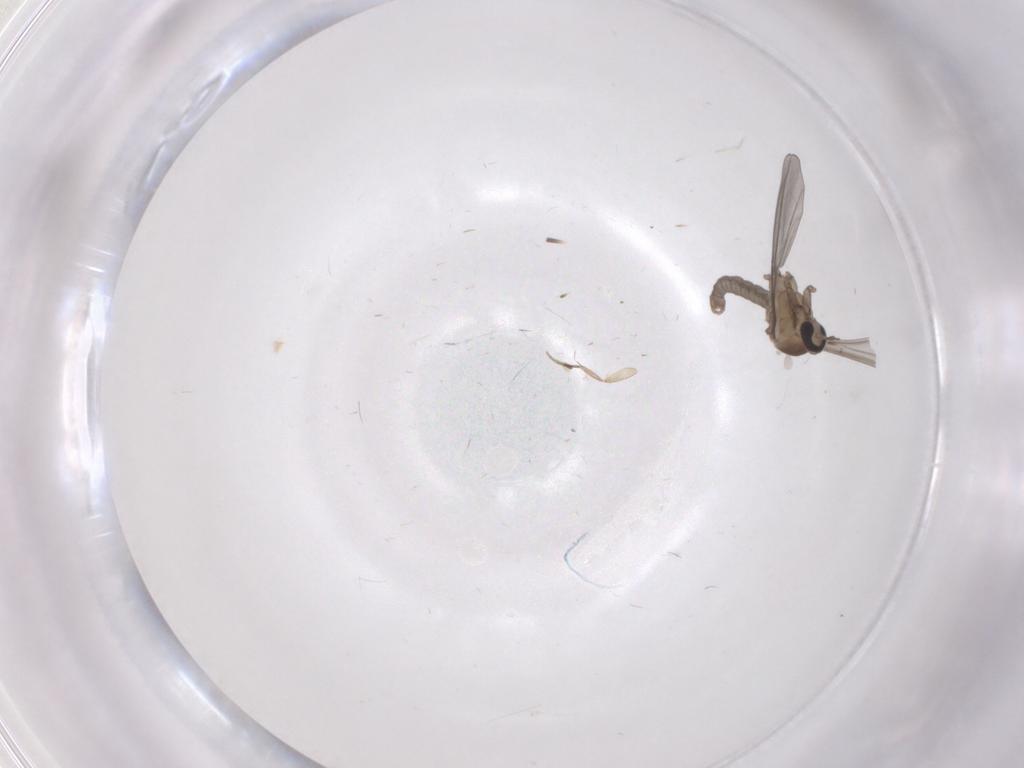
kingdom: Animalia
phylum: Arthropoda
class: Insecta
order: Diptera
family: Cecidomyiidae
